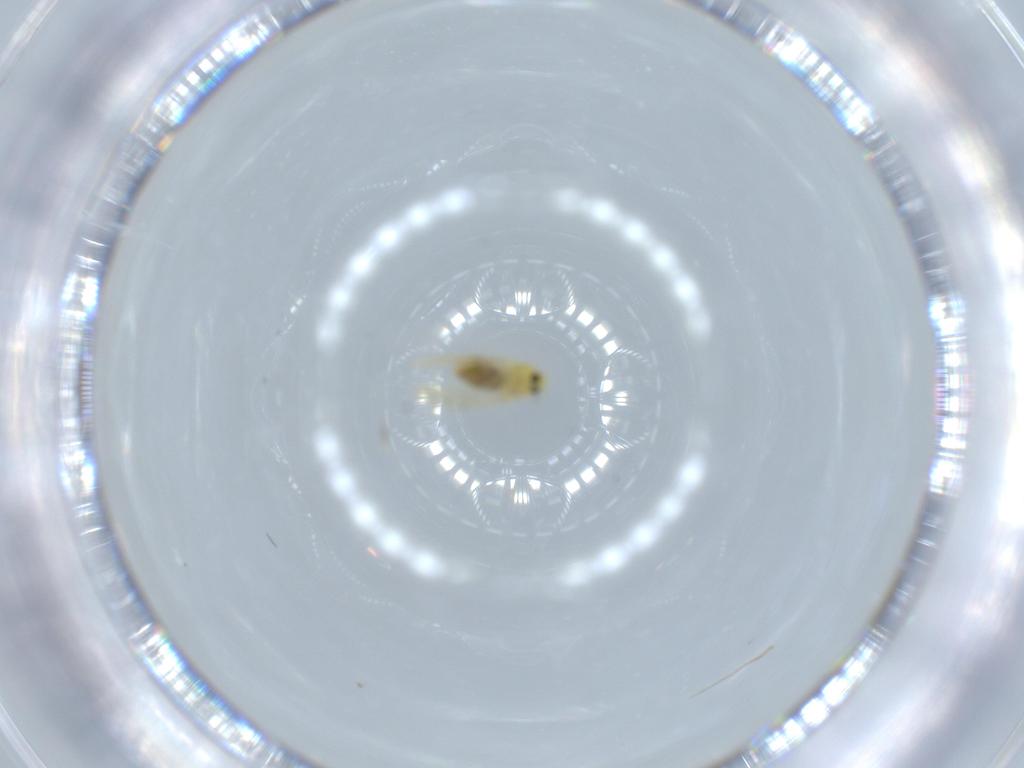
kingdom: Animalia
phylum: Arthropoda
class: Insecta
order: Hemiptera
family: Aleyrodidae
